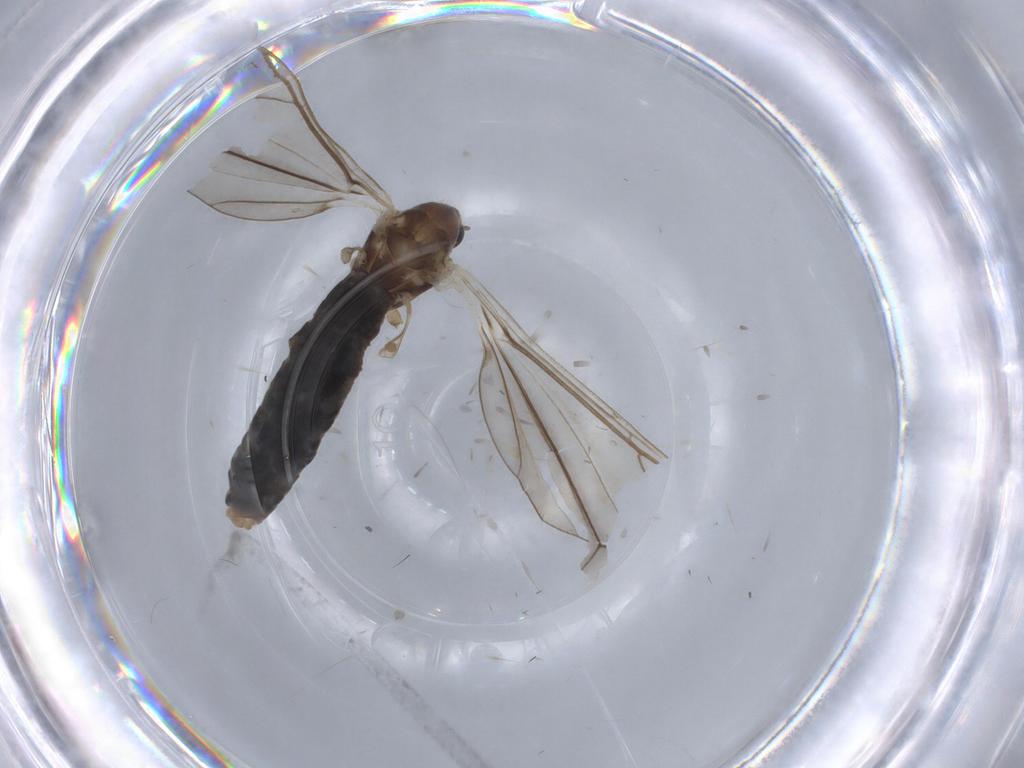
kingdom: Animalia
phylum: Arthropoda
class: Insecta
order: Diptera
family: Limoniidae
